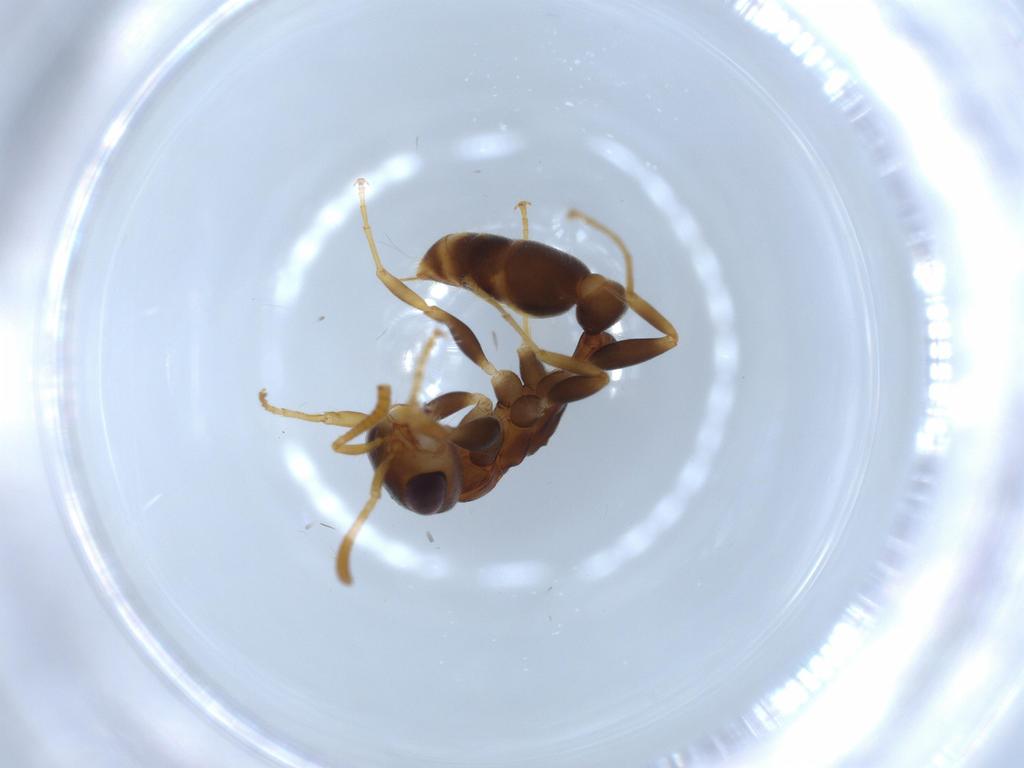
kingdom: Animalia
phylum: Arthropoda
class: Insecta
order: Hymenoptera
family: Formicidae
